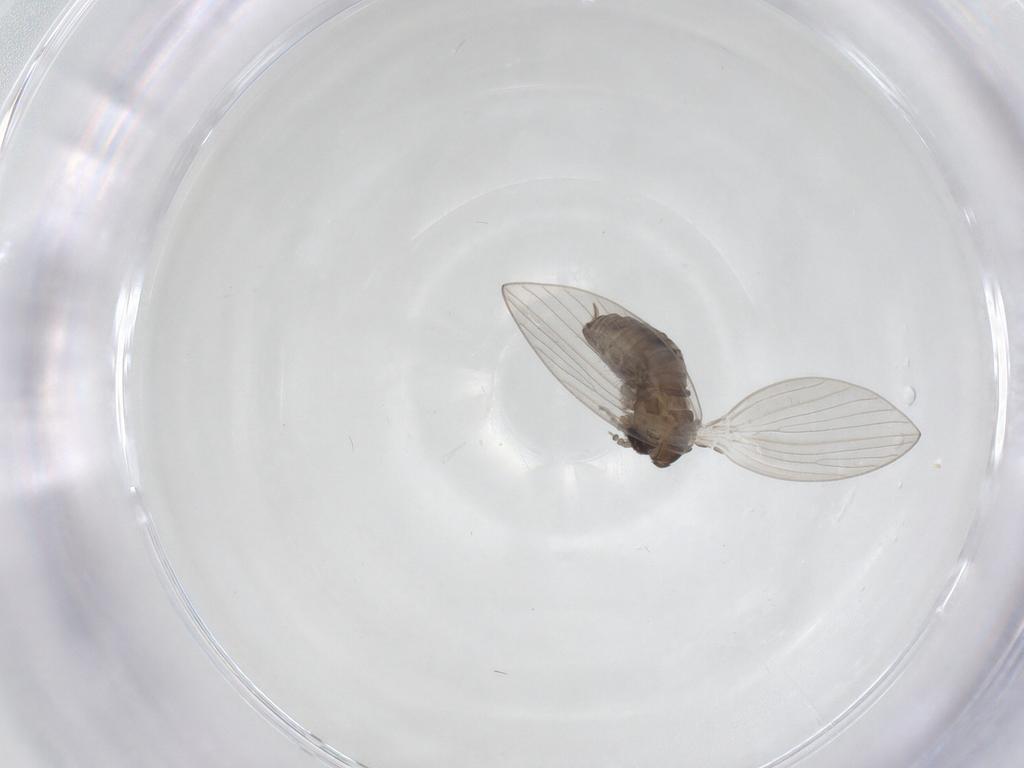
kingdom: Animalia
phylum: Arthropoda
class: Insecta
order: Diptera
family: Psychodidae
